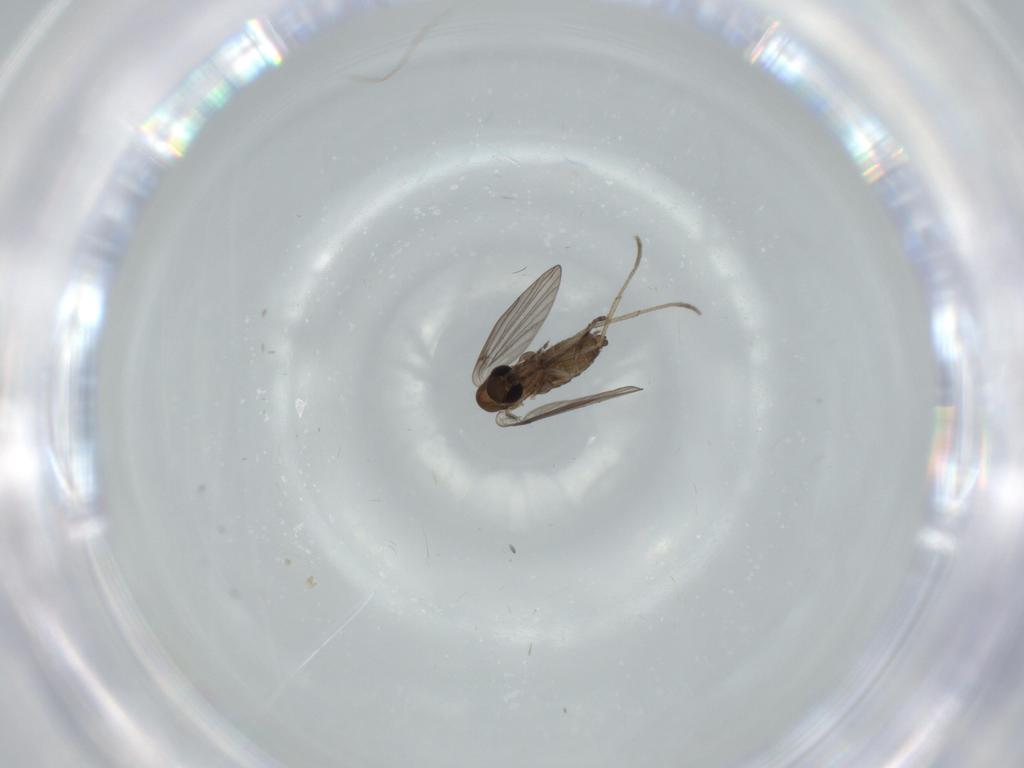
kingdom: Animalia
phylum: Arthropoda
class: Insecta
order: Diptera
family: Psychodidae
